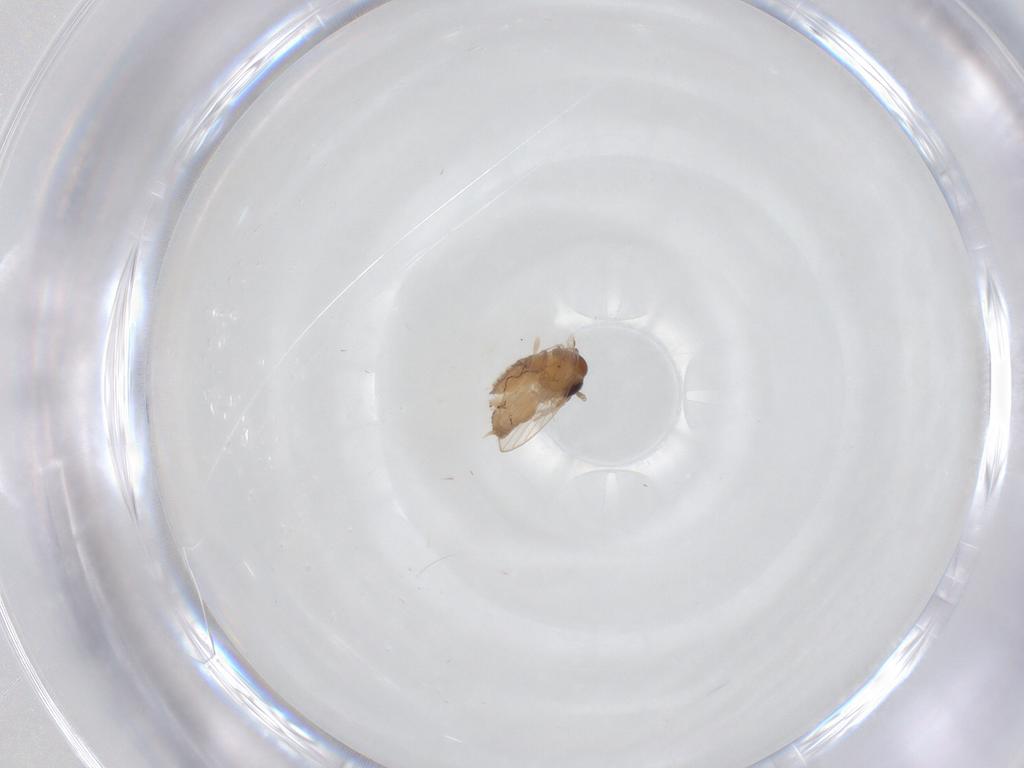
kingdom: Animalia
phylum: Arthropoda
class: Insecta
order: Diptera
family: Psychodidae
